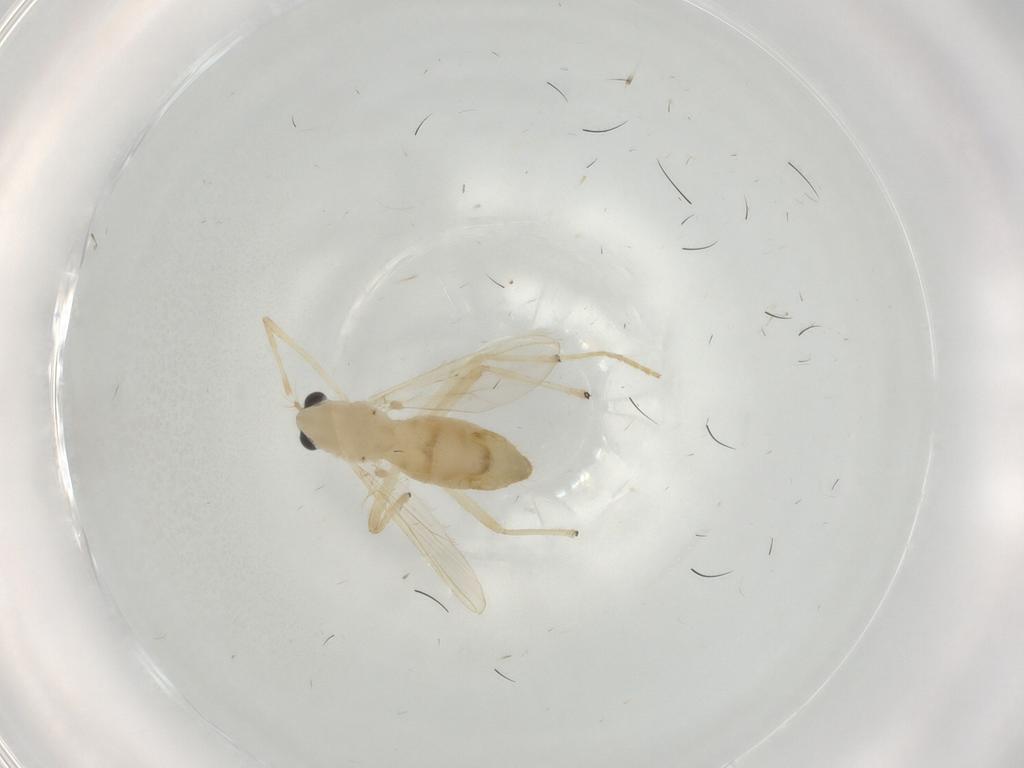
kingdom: Animalia
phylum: Arthropoda
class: Insecta
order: Diptera
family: Chironomidae
